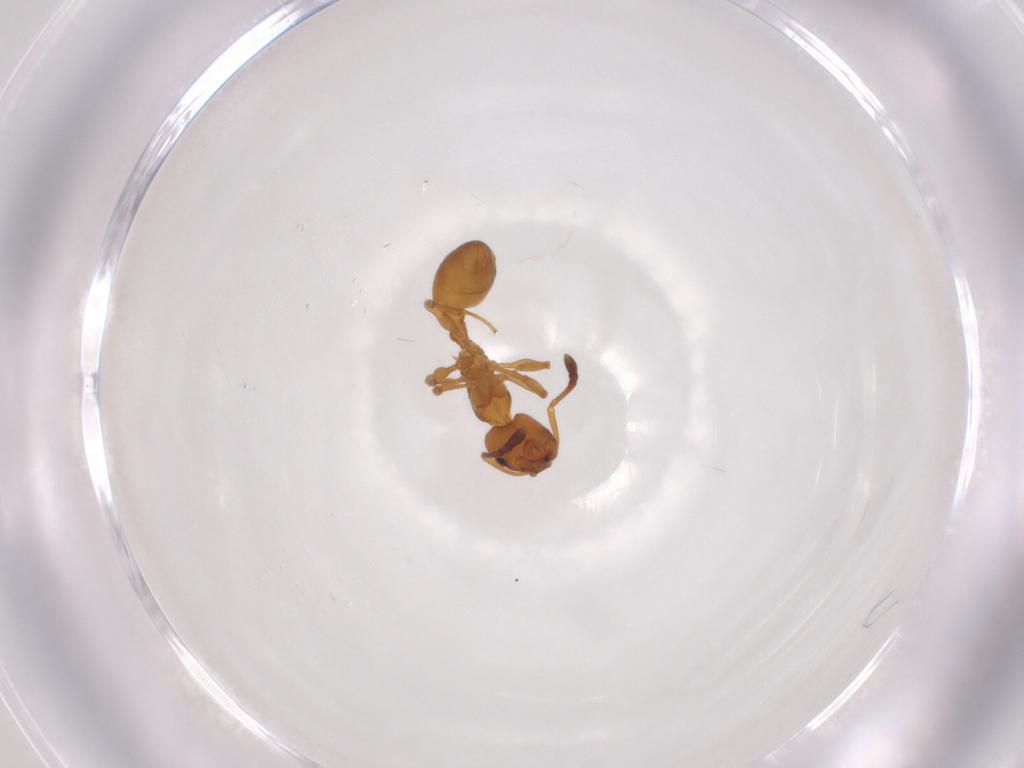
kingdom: Animalia
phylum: Arthropoda
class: Insecta
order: Hymenoptera
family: Formicidae
